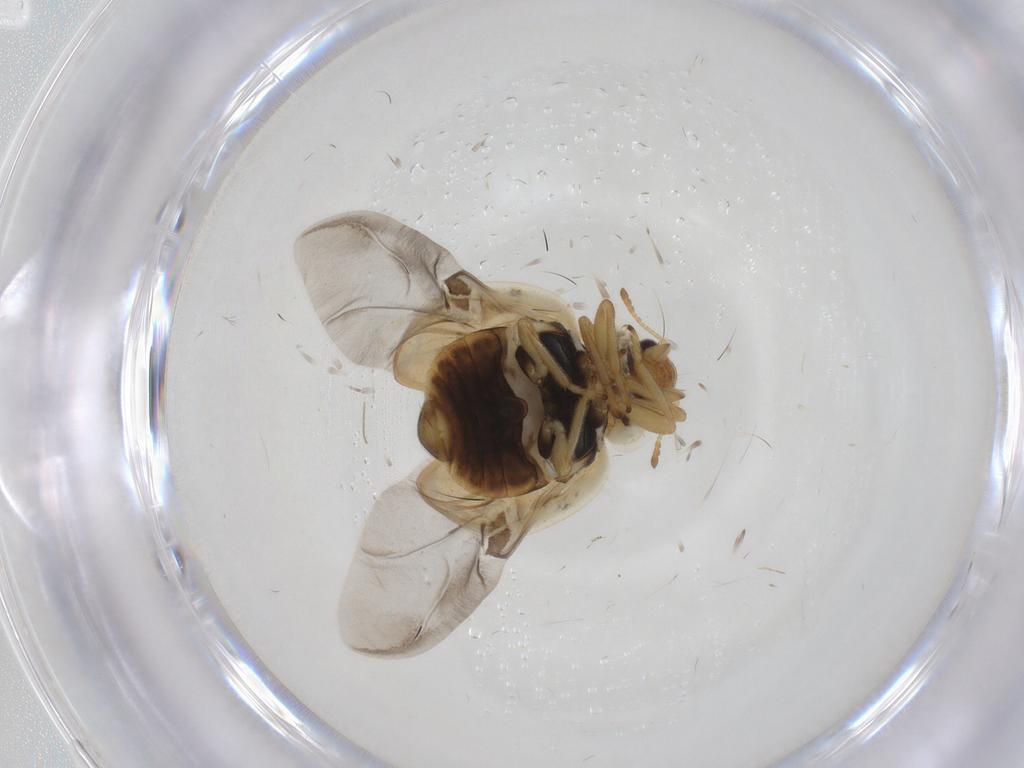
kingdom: Animalia
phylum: Arthropoda
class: Insecta
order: Coleoptera
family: Coccinellidae
